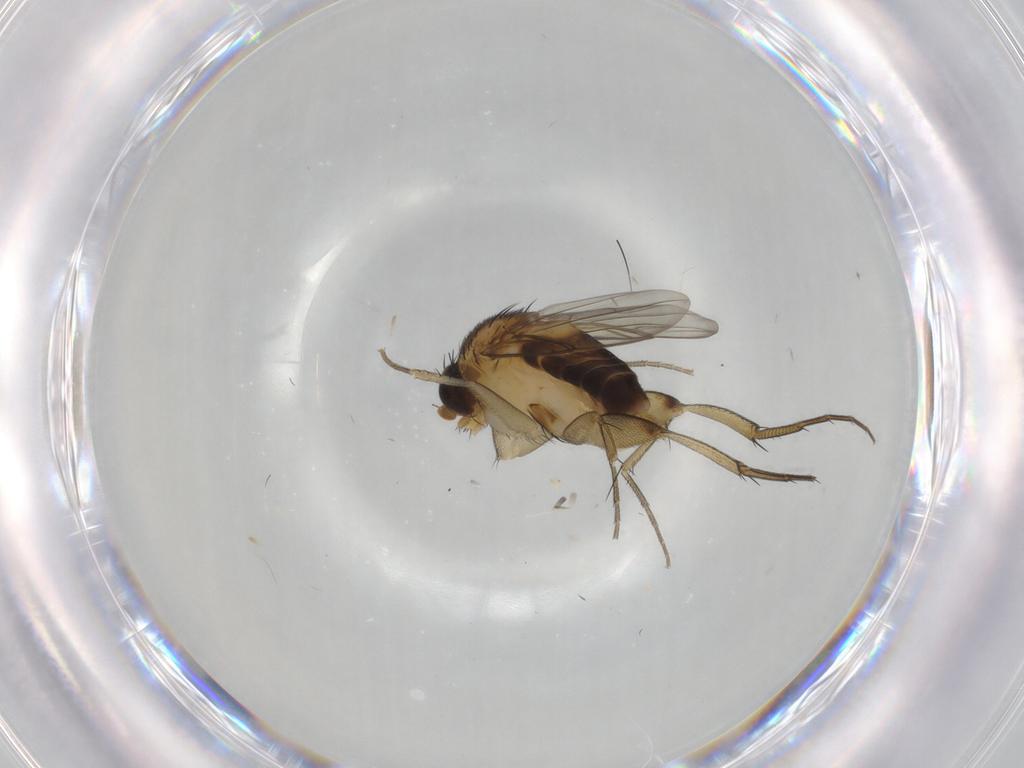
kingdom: Animalia
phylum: Arthropoda
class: Insecta
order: Diptera
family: Phoridae
